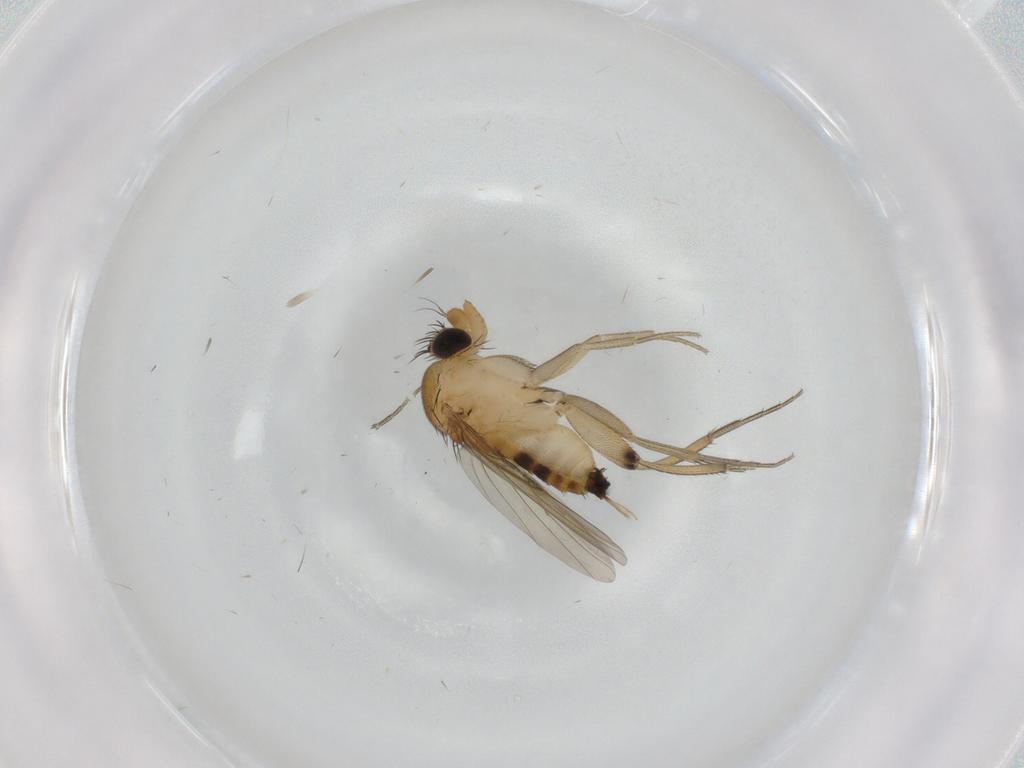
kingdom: Animalia
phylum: Arthropoda
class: Insecta
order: Diptera
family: Phoridae
